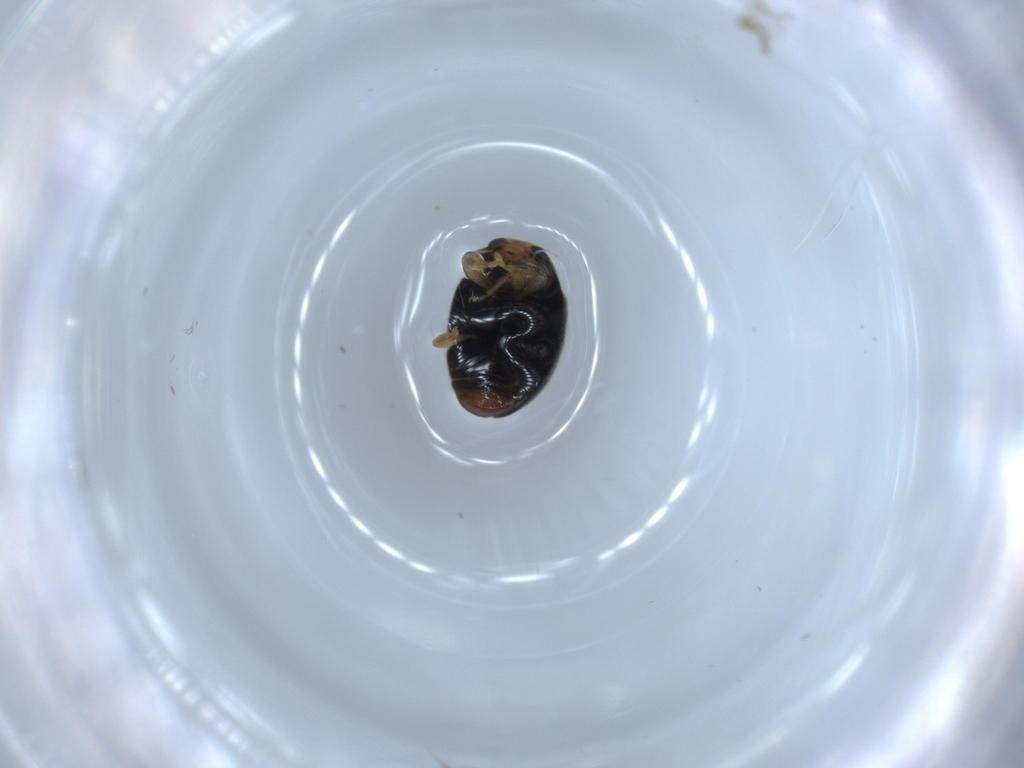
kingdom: Animalia
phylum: Arthropoda
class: Insecta
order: Coleoptera
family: Coccinellidae
